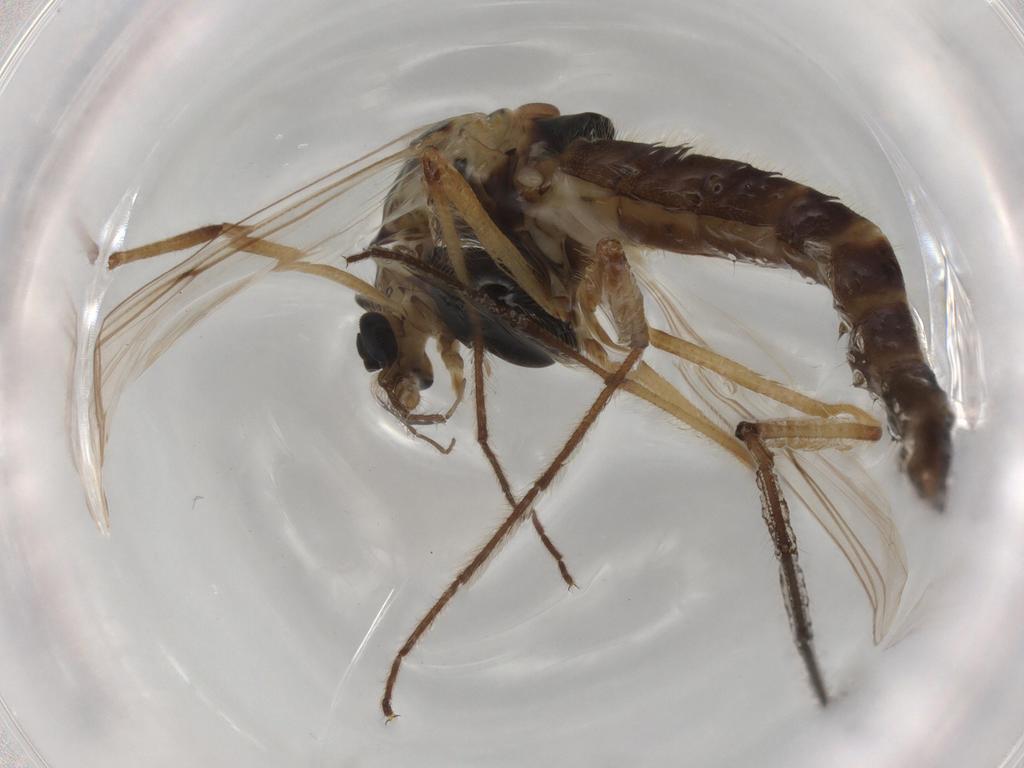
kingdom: Animalia
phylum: Arthropoda
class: Insecta
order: Diptera
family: Chironomidae
